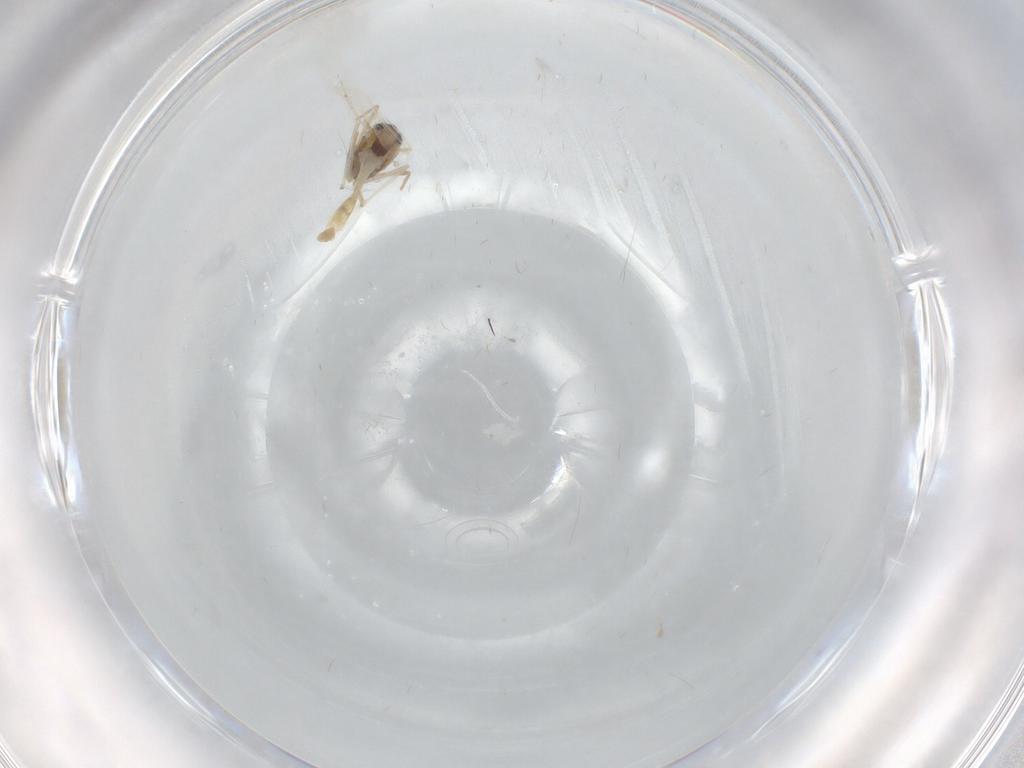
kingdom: Animalia
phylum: Arthropoda
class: Insecta
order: Diptera
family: Chironomidae
